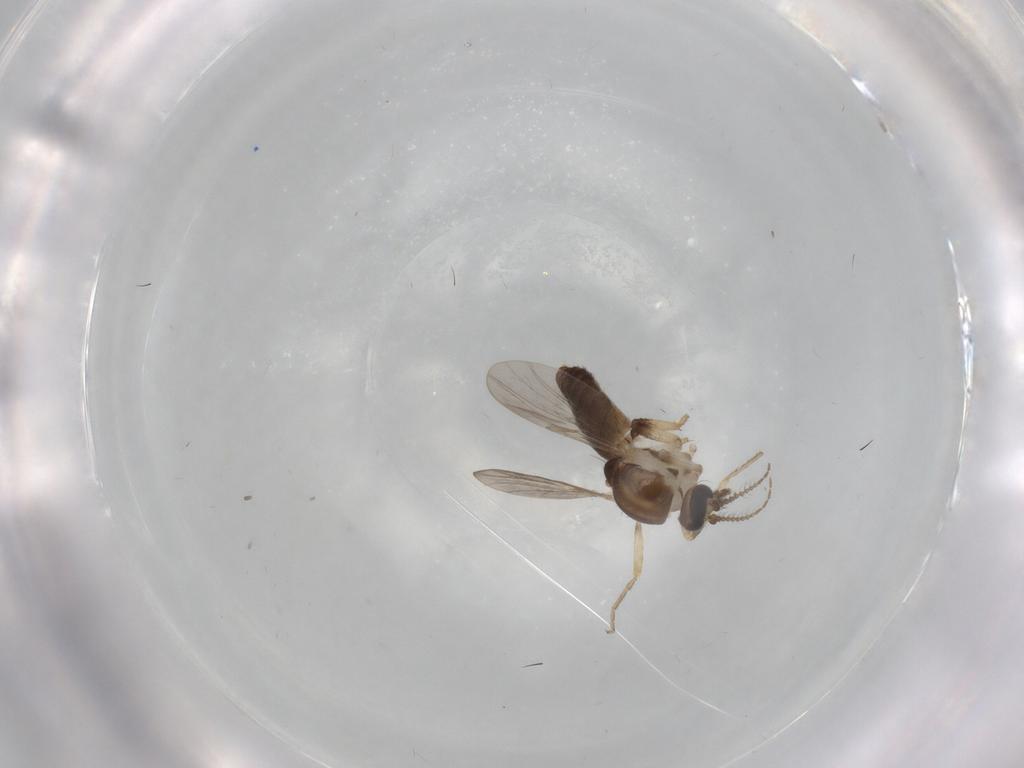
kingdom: Animalia
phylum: Arthropoda
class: Insecta
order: Diptera
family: Ceratopogonidae
